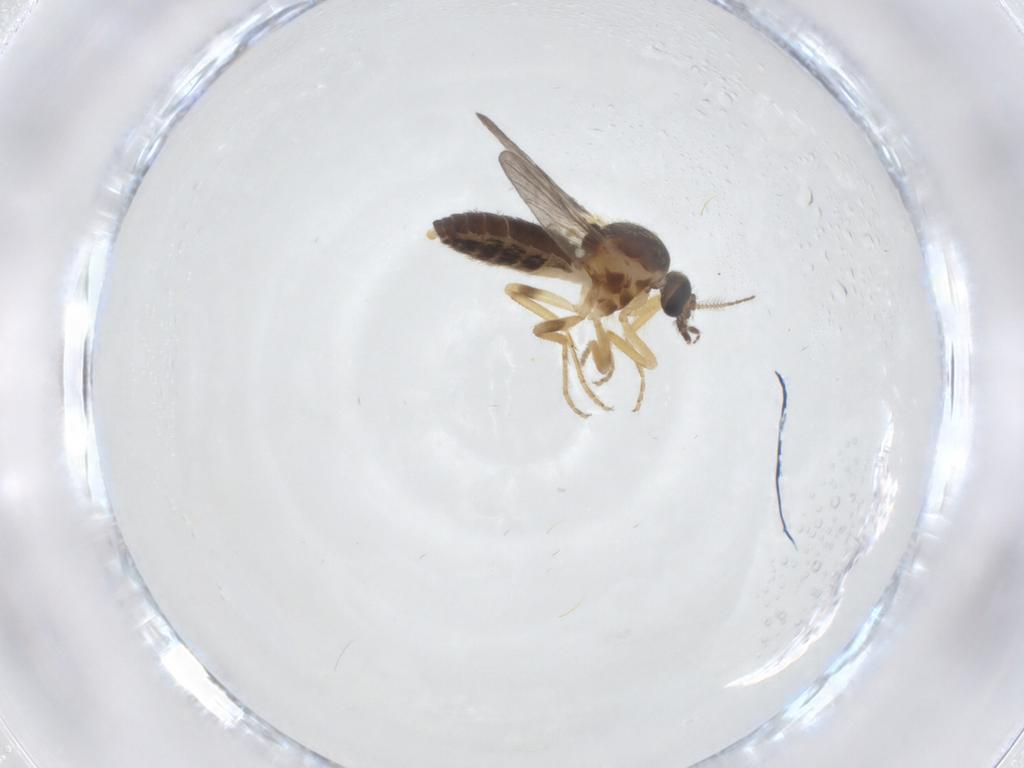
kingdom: Animalia
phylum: Arthropoda
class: Insecta
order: Diptera
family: Ceratopogonidae
